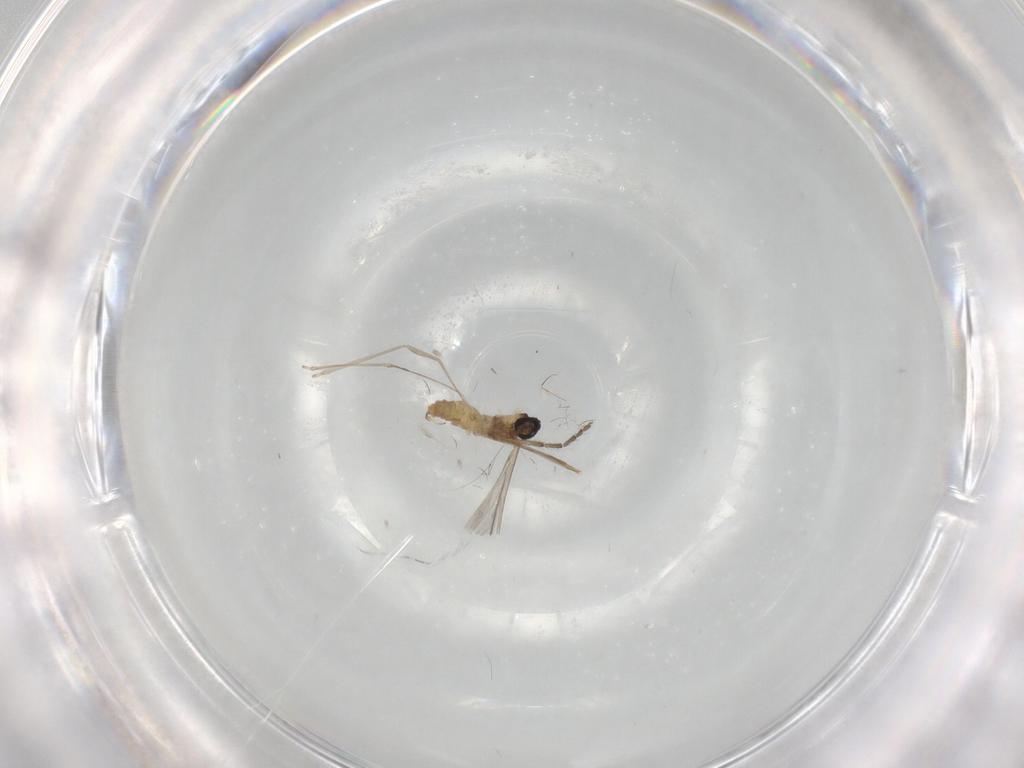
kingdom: Animalia
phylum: Arthropoda
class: Insecta
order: Diptera
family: Cecidomyiidae
